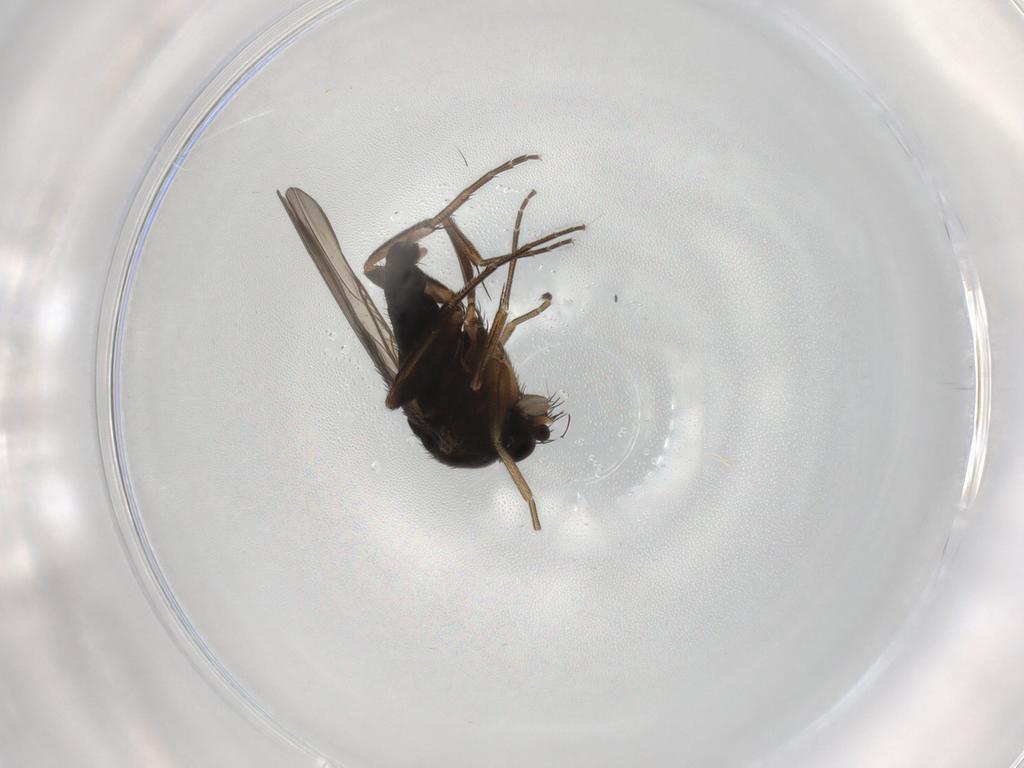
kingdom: Animalia
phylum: Arthropoda
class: Insecta
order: Diptera
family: Phoridae
